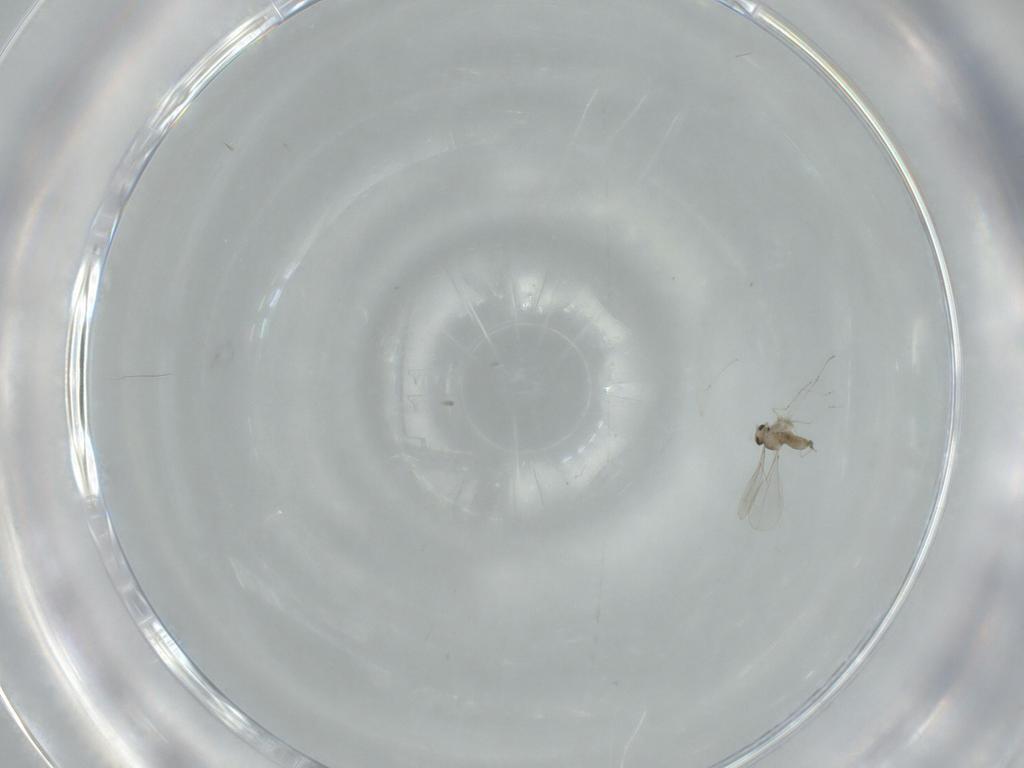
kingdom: Animalia
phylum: Arthropoda
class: Insecta
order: Diptera
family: Cecidomyiidae
